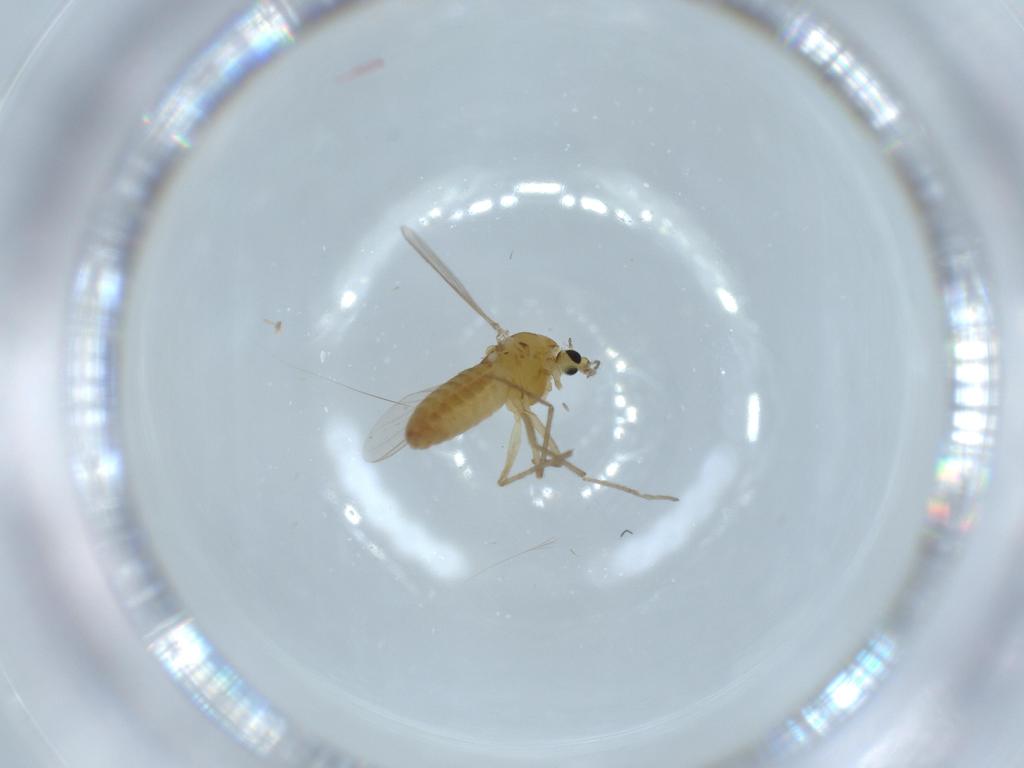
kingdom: Animalia
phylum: Arthropoda
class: Insecta
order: Diptera
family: Chironomidae
